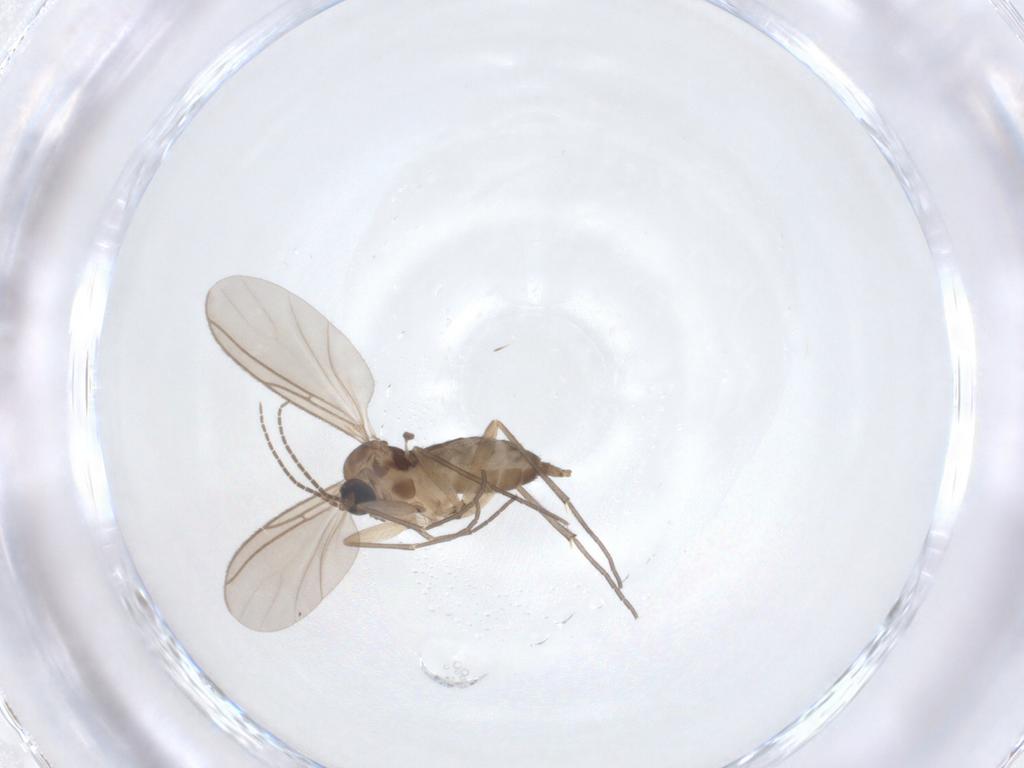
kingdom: Animalia
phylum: Arthropoda
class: Insecta
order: Diptera
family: Sciaridae
